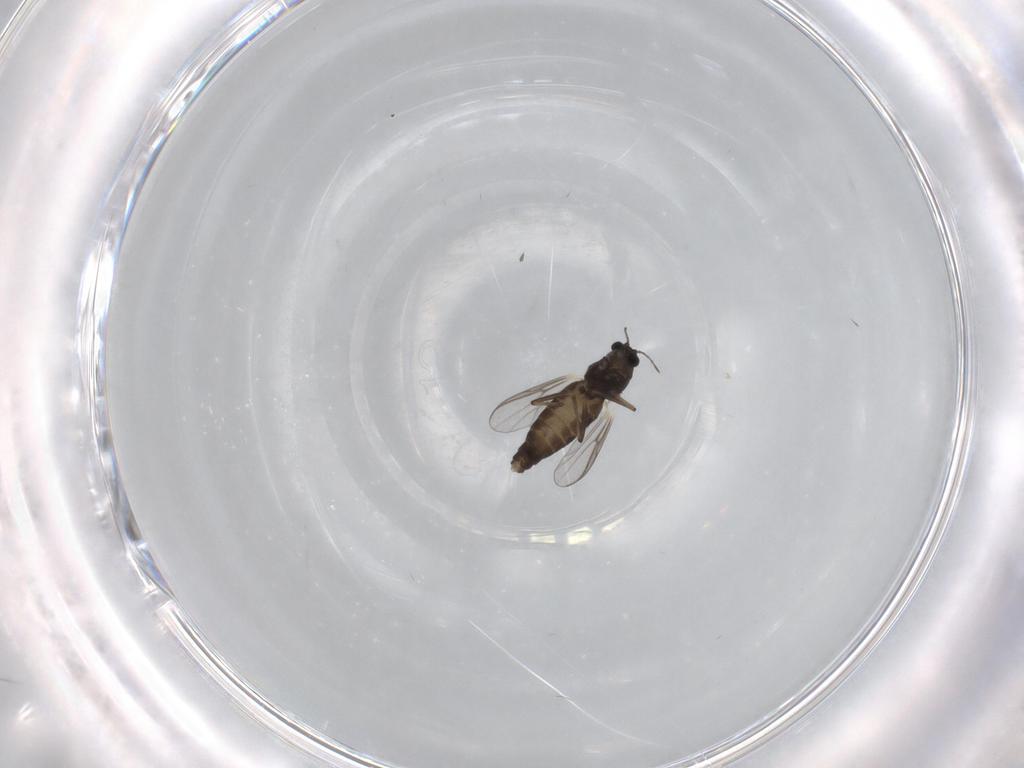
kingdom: Animalia
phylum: Arthropoda
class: Insecta
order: Diptera
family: Chironomidae
